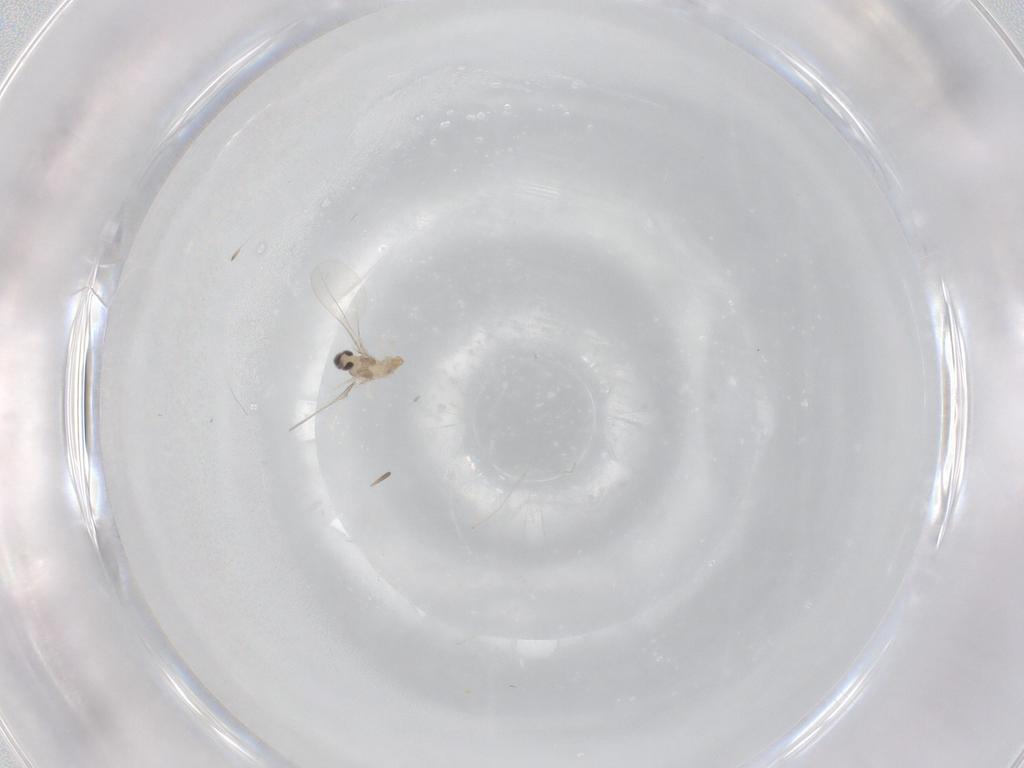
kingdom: Animalia
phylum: Arthropoda
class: Insecta
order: Diptera
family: Cecidomyiidae
